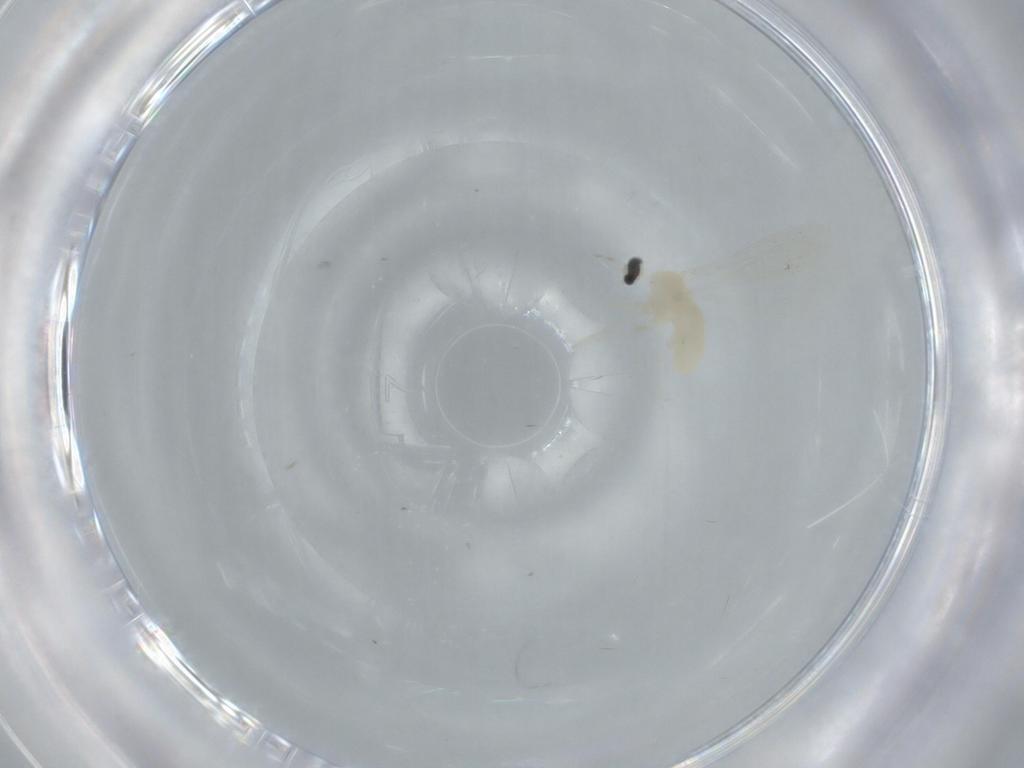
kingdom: Animalia
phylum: Arthropoda
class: Insecta
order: Diptera
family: Cecidomyiidae
